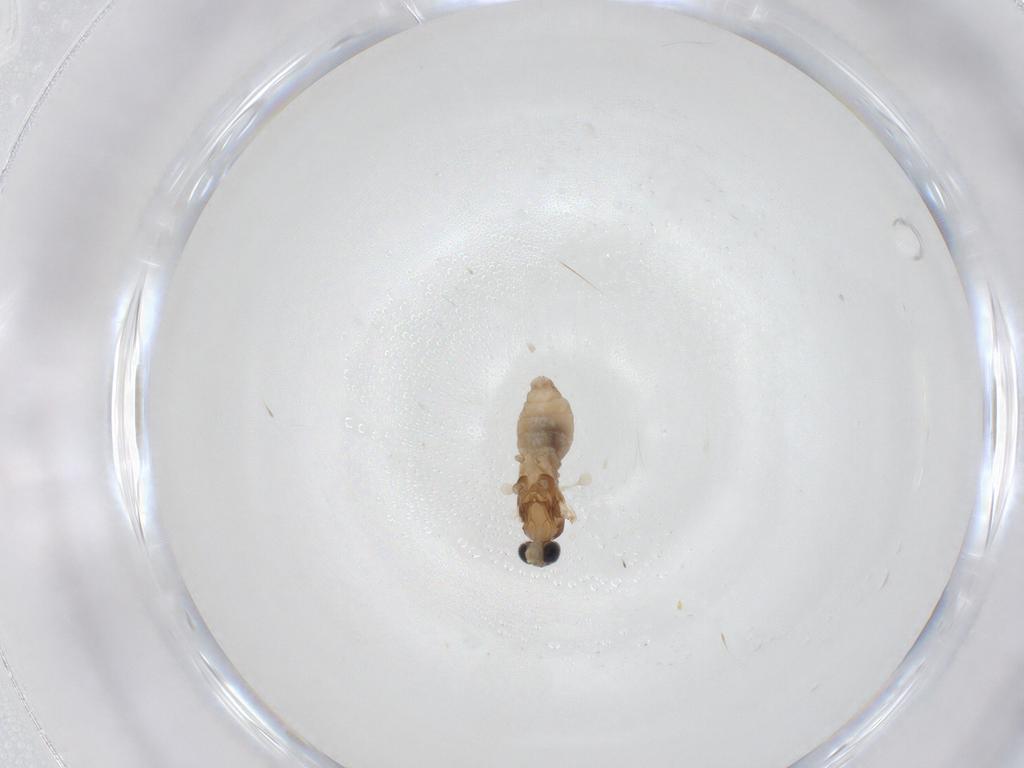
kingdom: Animalia
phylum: Arthropoda
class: Insecta
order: Diptera
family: Cecidomyiidae
